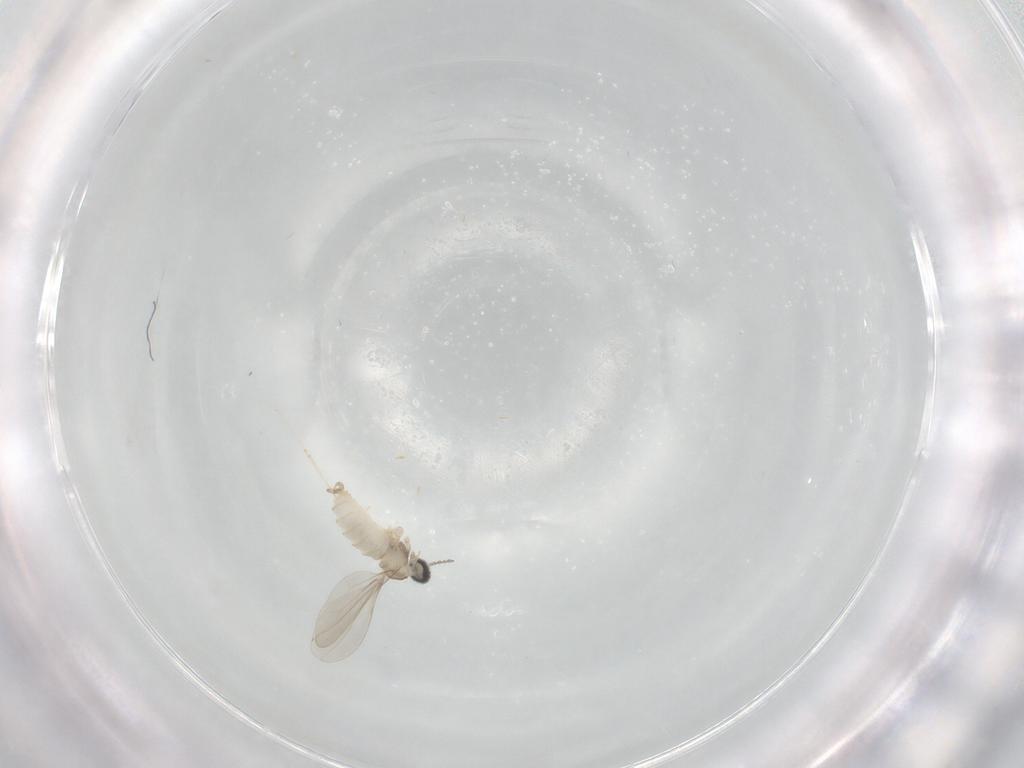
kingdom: Animalia
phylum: Arthropoda
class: Insecta
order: Diptera
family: Cecidomyiidae
